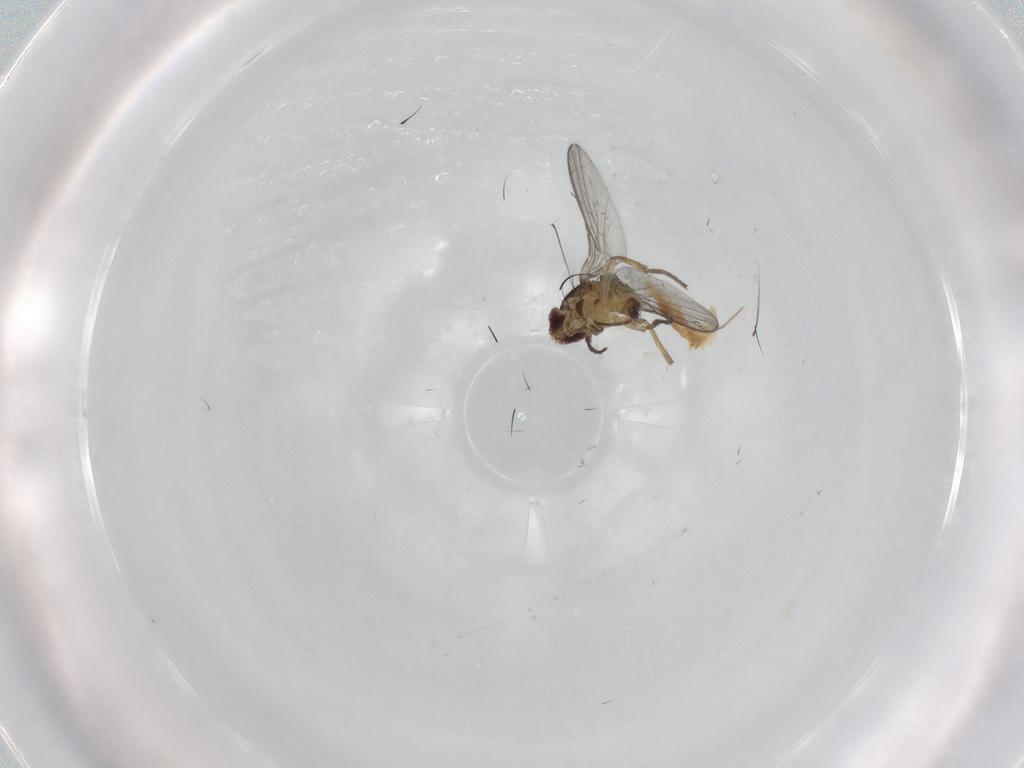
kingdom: Animalia
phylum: Arthropoda
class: Insecta
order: Diptera
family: Agromyzidae
